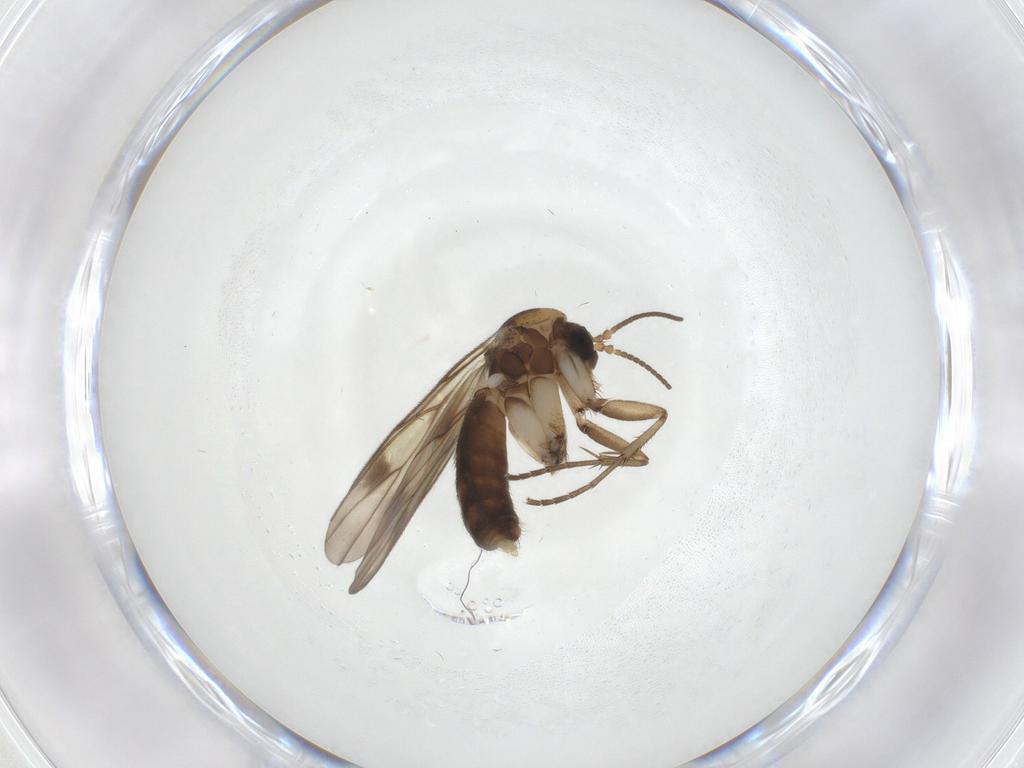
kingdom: Animalia
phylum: Arthropoda
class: Insecta
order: Diptera
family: Mycetophilidae
